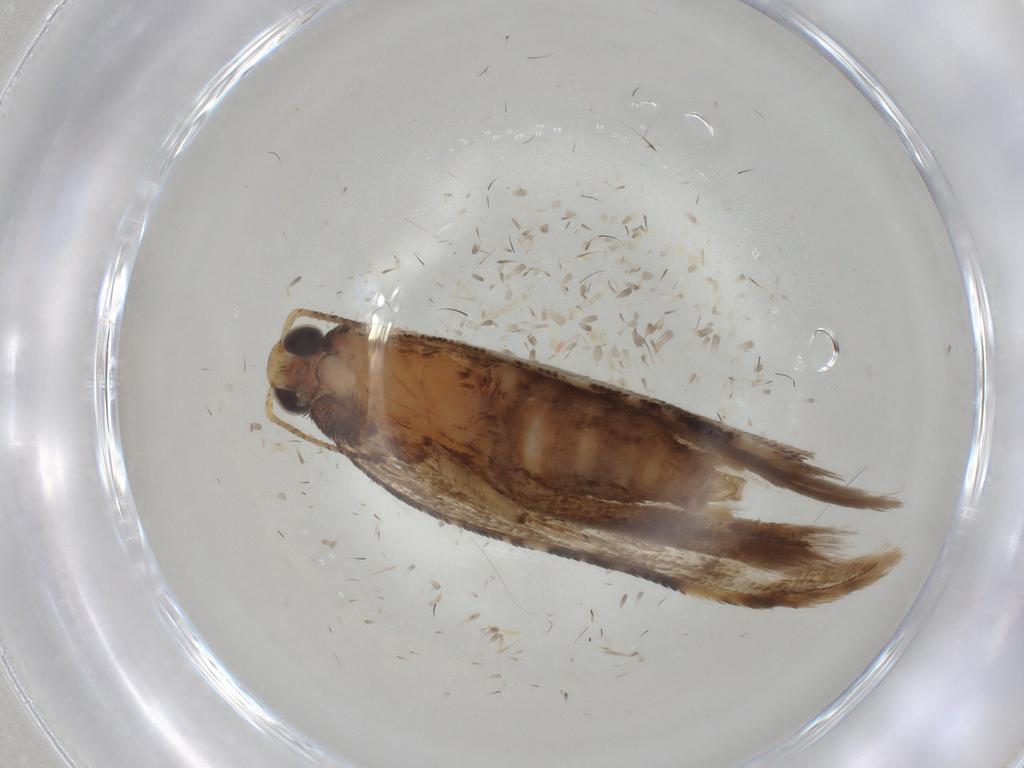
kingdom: Animalia
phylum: Arthropoda
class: Insecta
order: Lepidoptera
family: Gelechiidae
